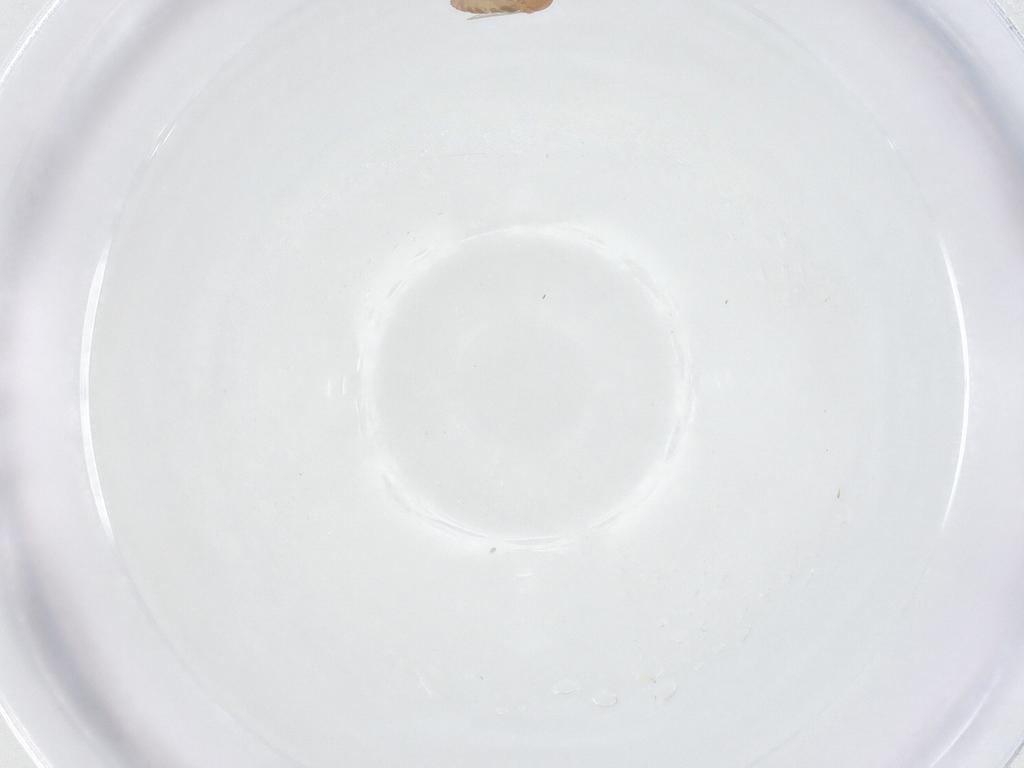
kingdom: Animalia
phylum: Arthropoda
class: Insecta
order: Diptera
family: Ceratopogonidae
